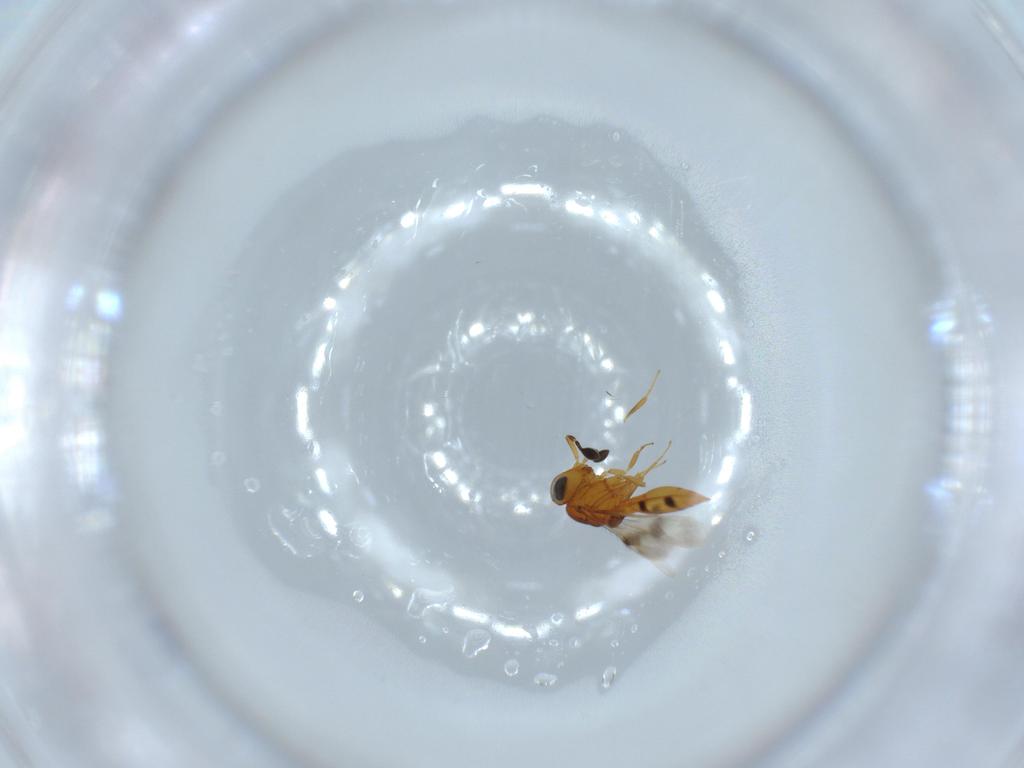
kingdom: Animalia
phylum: Arthropoda
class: Insecta
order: Hymenoptera
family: Scelionidae
